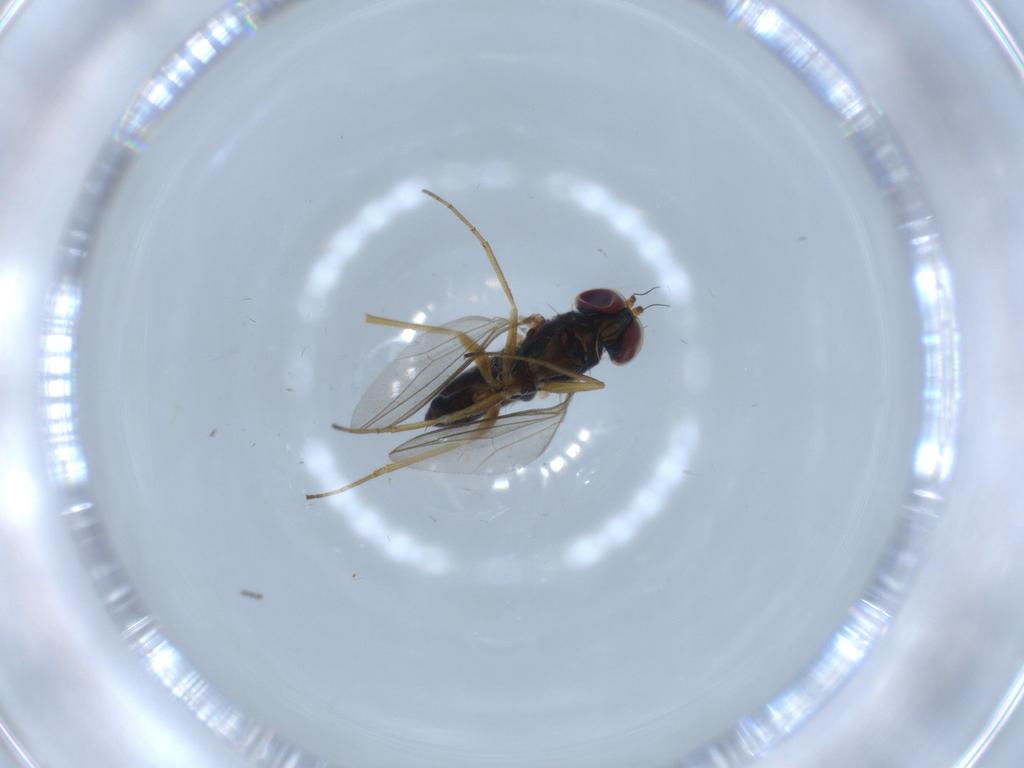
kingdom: Animalia
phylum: Arthropoda
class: Insecta
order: Diptera
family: Dolichopodidae
